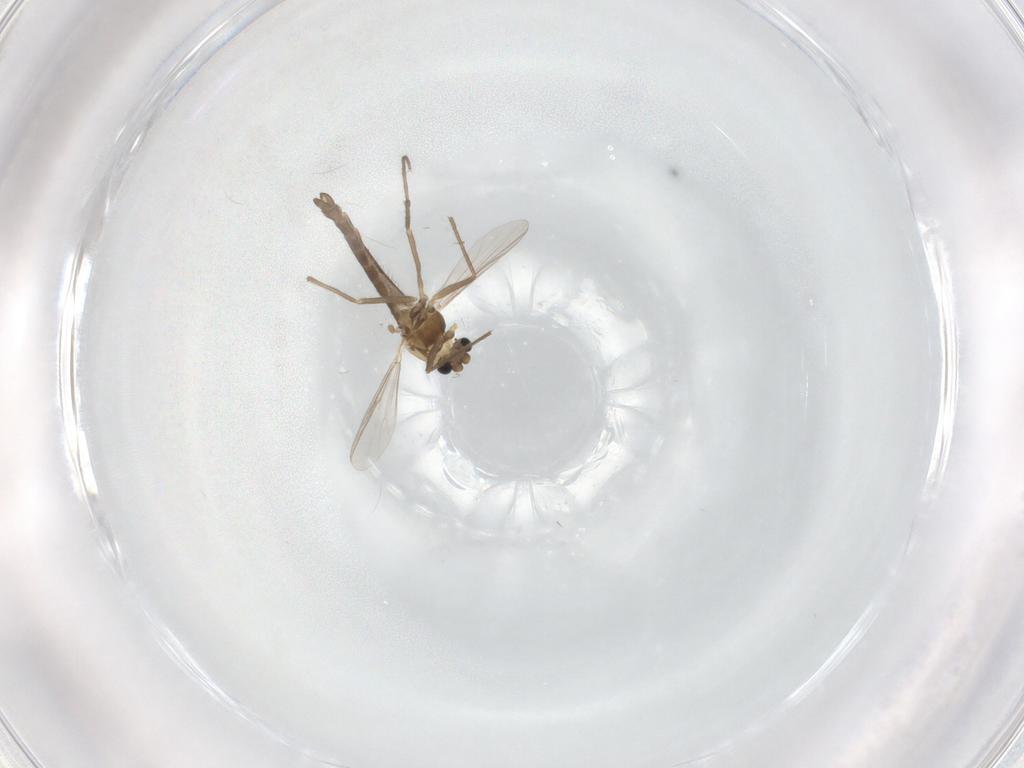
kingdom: Animalia
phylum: Arthropoda
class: Insecta
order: Diptera
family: Chironomidae
